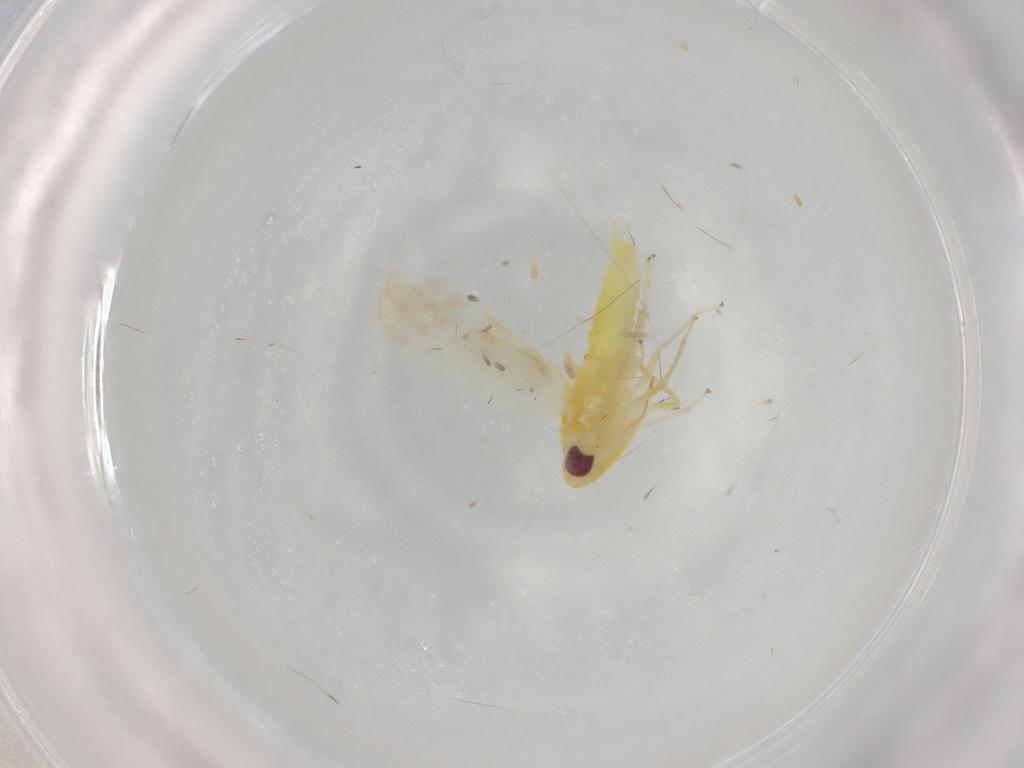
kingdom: Animalia
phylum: Arthropoda
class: Insecta
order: Hemiptera
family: Cicadellidae
